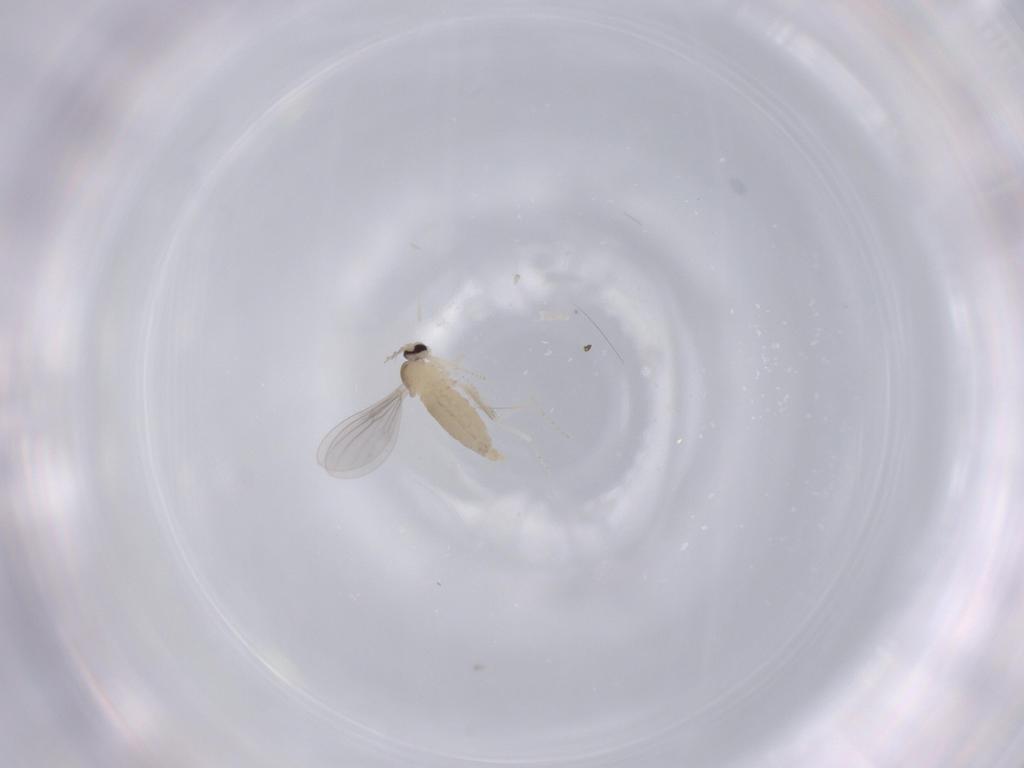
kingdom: Animalia
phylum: Arthropoda
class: Insecta
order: Diptera
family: Cecidomyiidae
